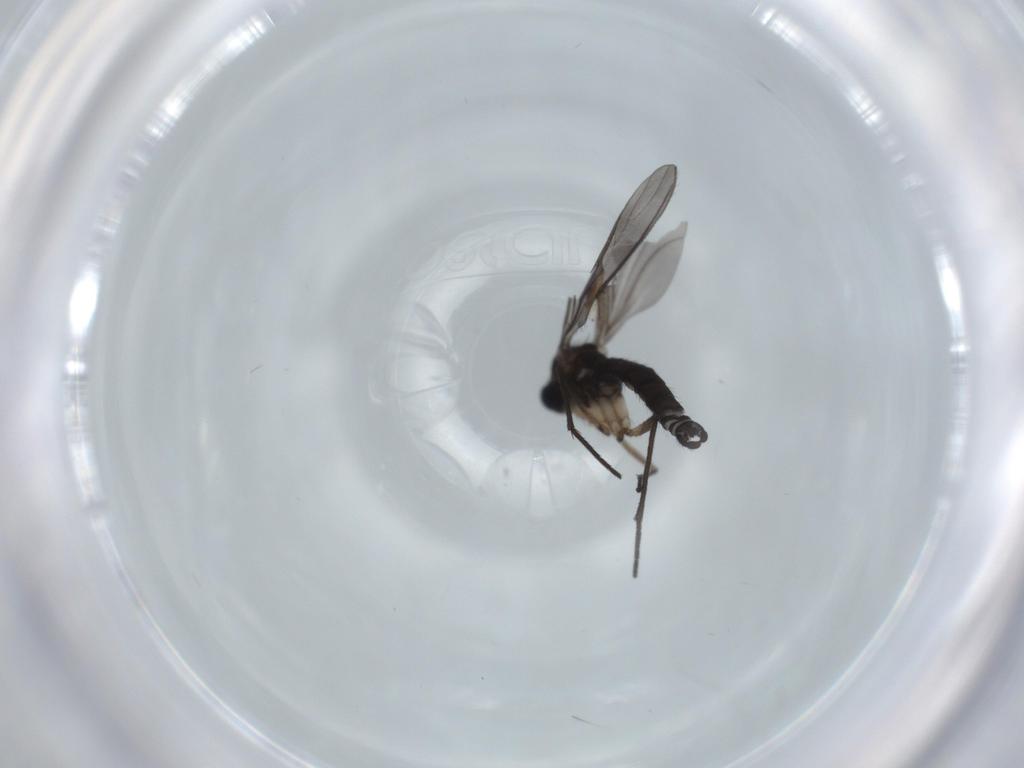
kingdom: Animalia
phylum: Arthropoda
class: Insecta
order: Diptera
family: Sciaridae
